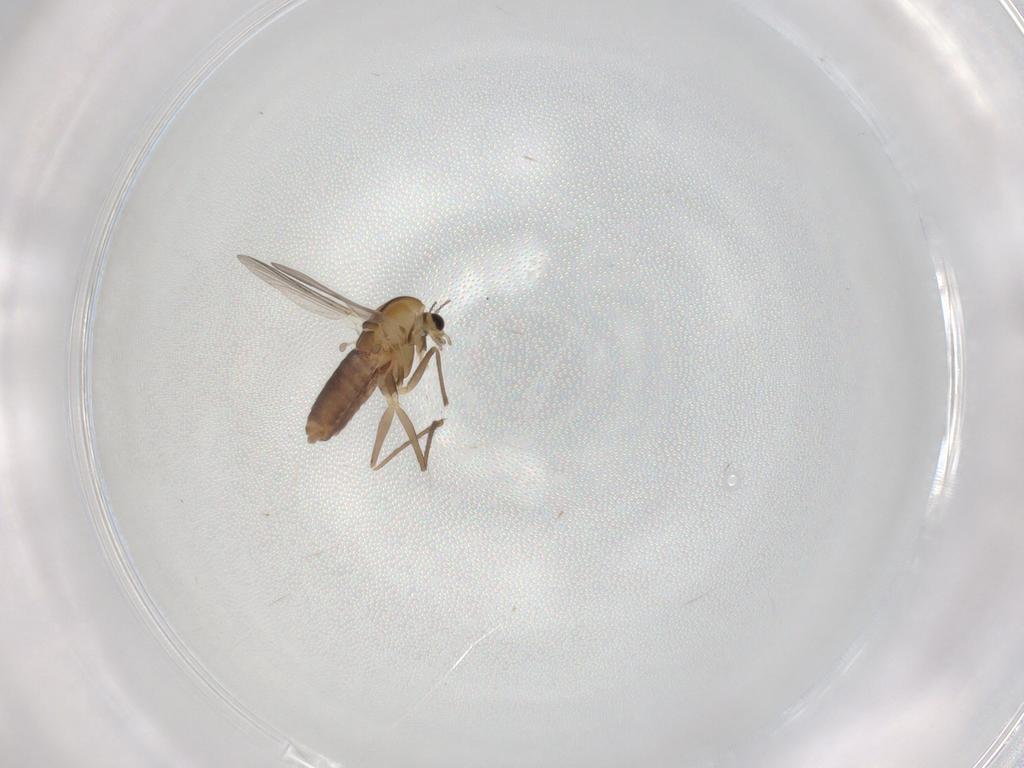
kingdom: Animalia
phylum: Arthropoda
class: Insecta
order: Diptera
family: Chironomidae
